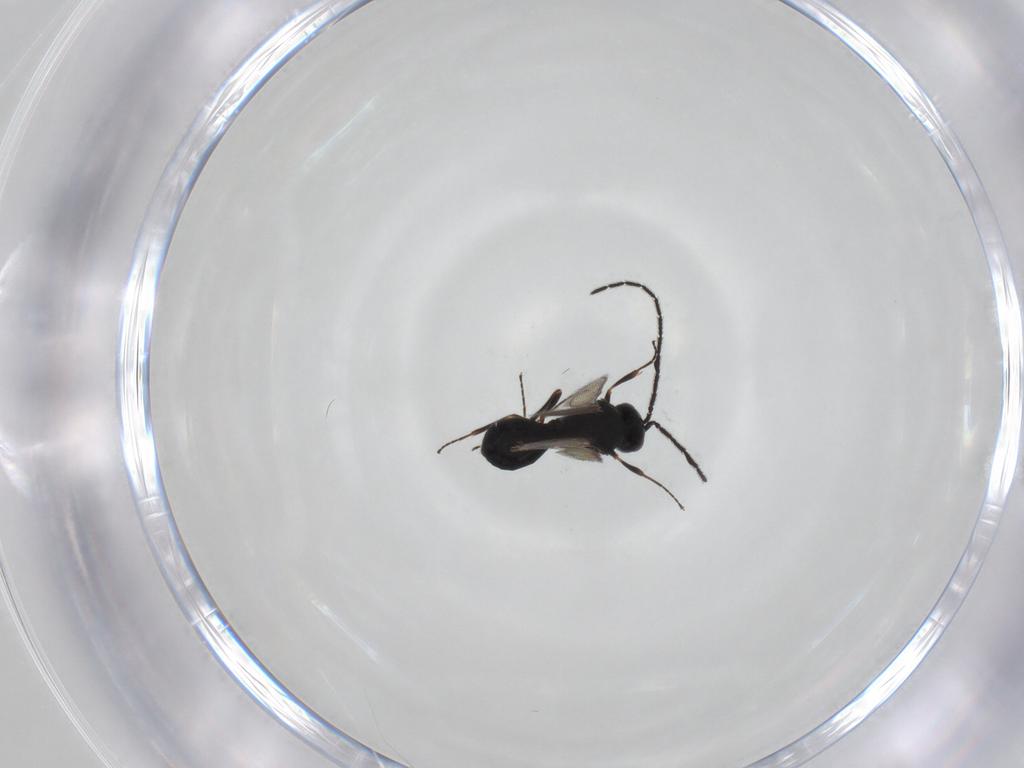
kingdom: Animalia
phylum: Arthropoda
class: Insecta
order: Hymenoptera
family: Scelionidae
